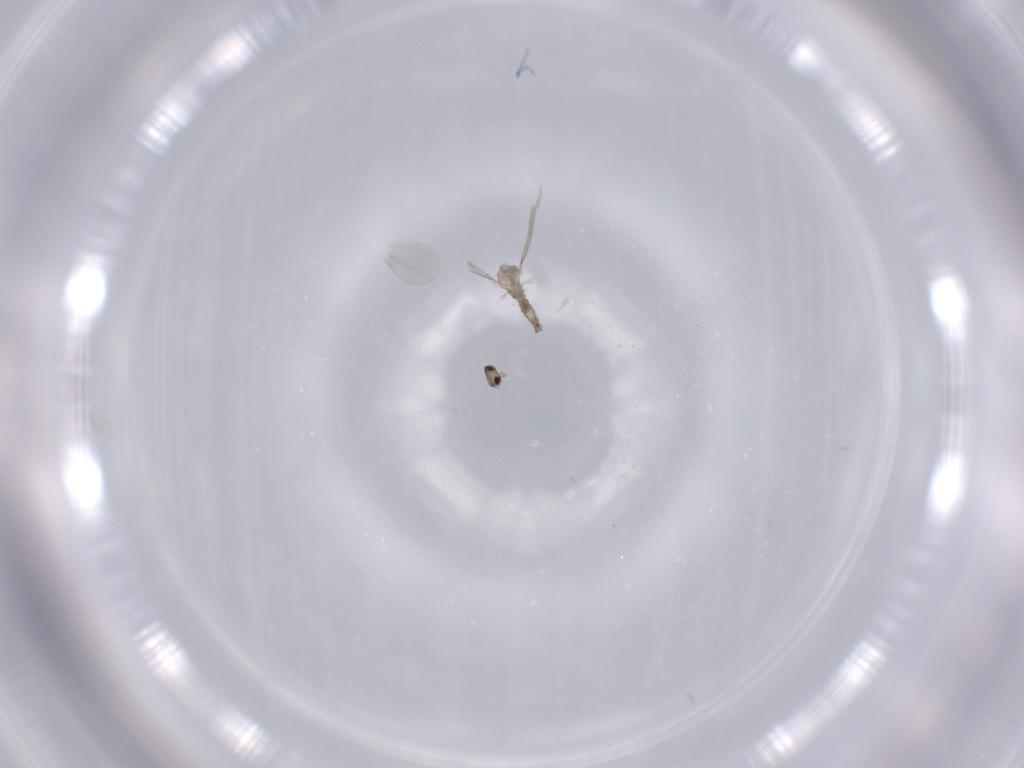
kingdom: Animalia
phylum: Arthropoda
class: Insecta
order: Diptera
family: Cecidomyiidae
